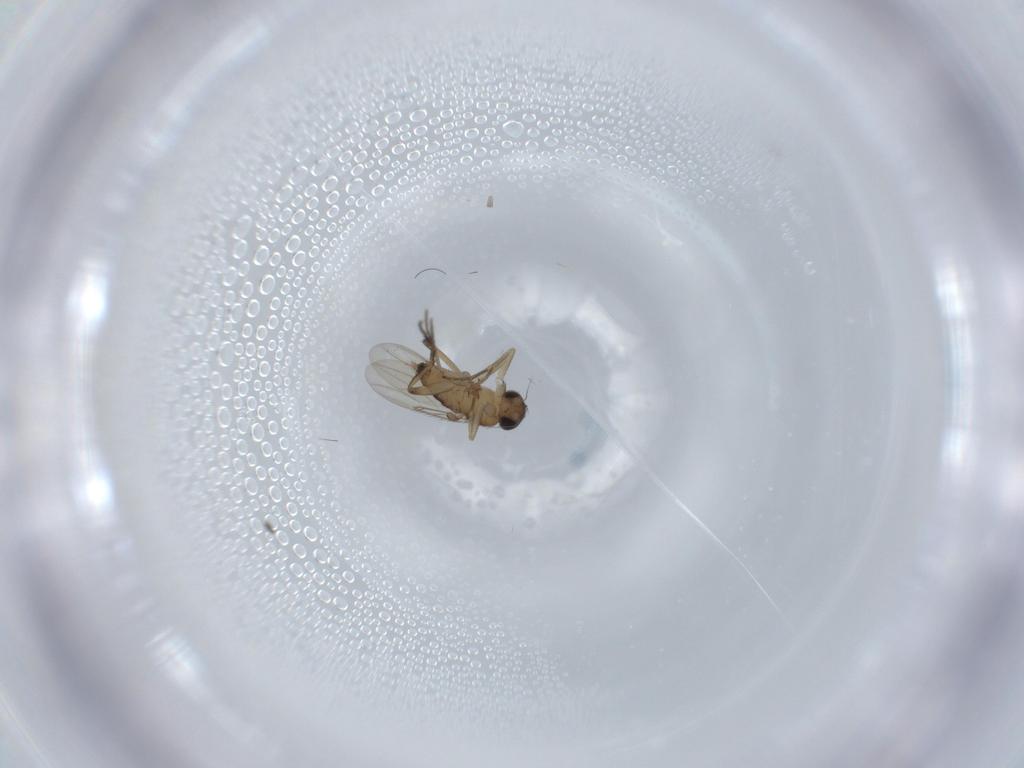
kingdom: Animalia
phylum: Arthropoda
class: Insecta
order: Diptera
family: Phoridae
